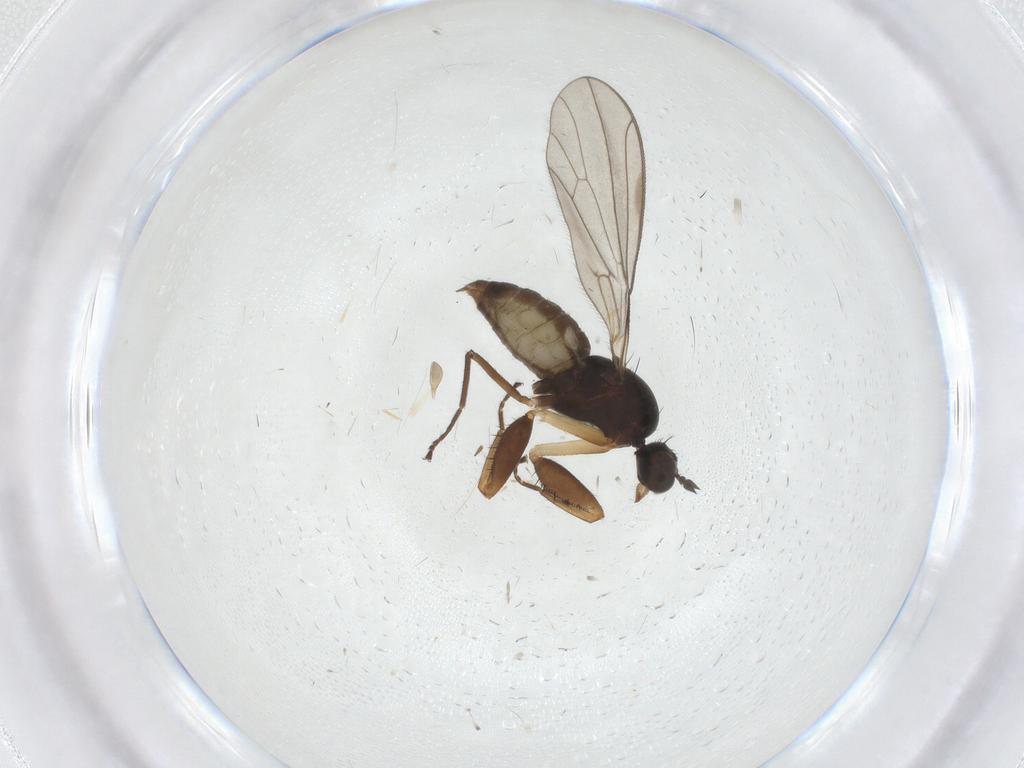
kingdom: Animalia
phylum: Arthropoda
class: Insecta
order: Diptera
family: Empididae
